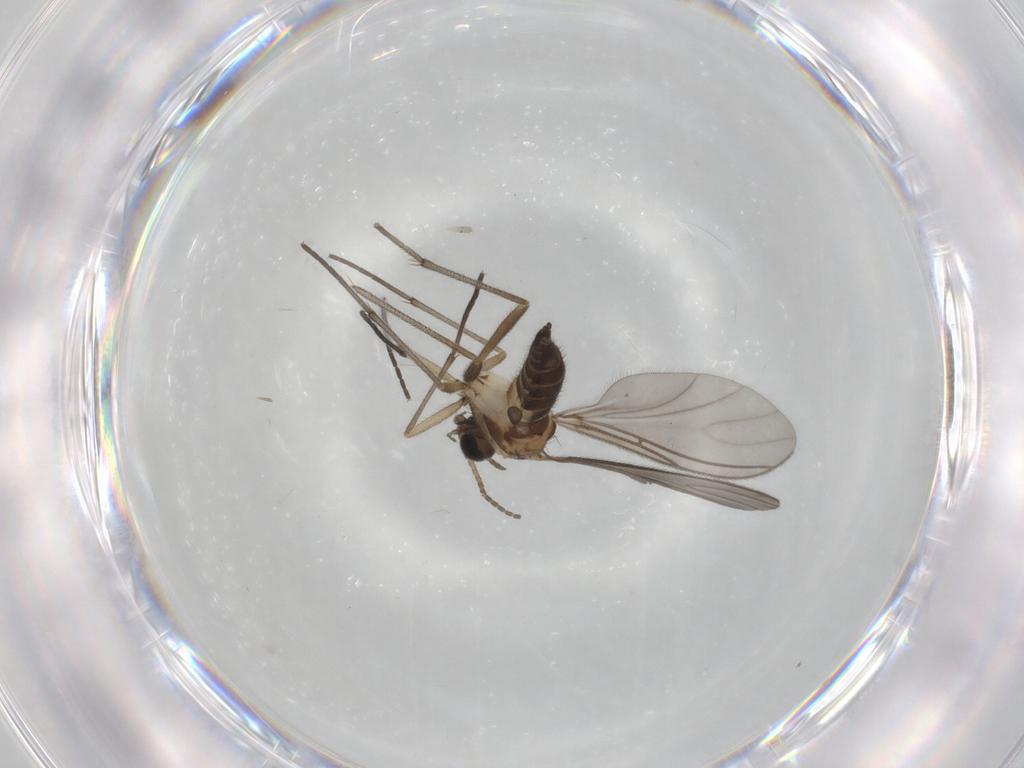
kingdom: Animalia
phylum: Arthropoda
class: Insecta
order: Diptera
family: Sciaridae
